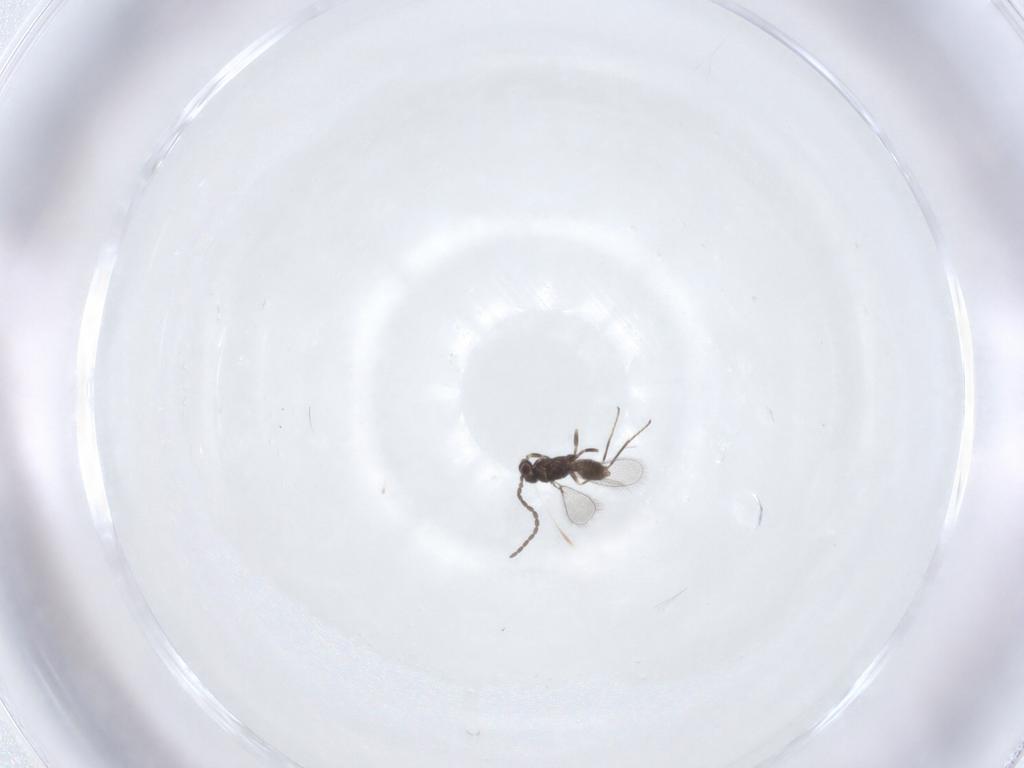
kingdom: Animalia
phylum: Arthropoda
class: Insecta
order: Hymenoptera
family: Mymaridae
